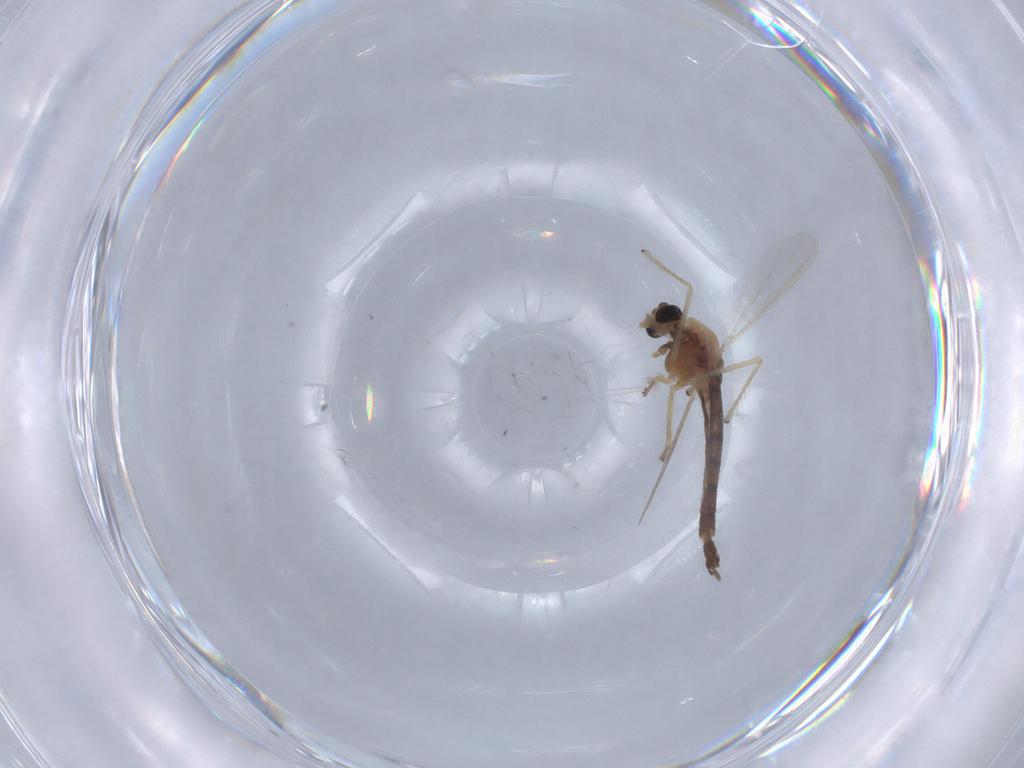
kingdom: Animalia
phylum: Arthropoda
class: Insecta
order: Diptera
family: Chironomidae
